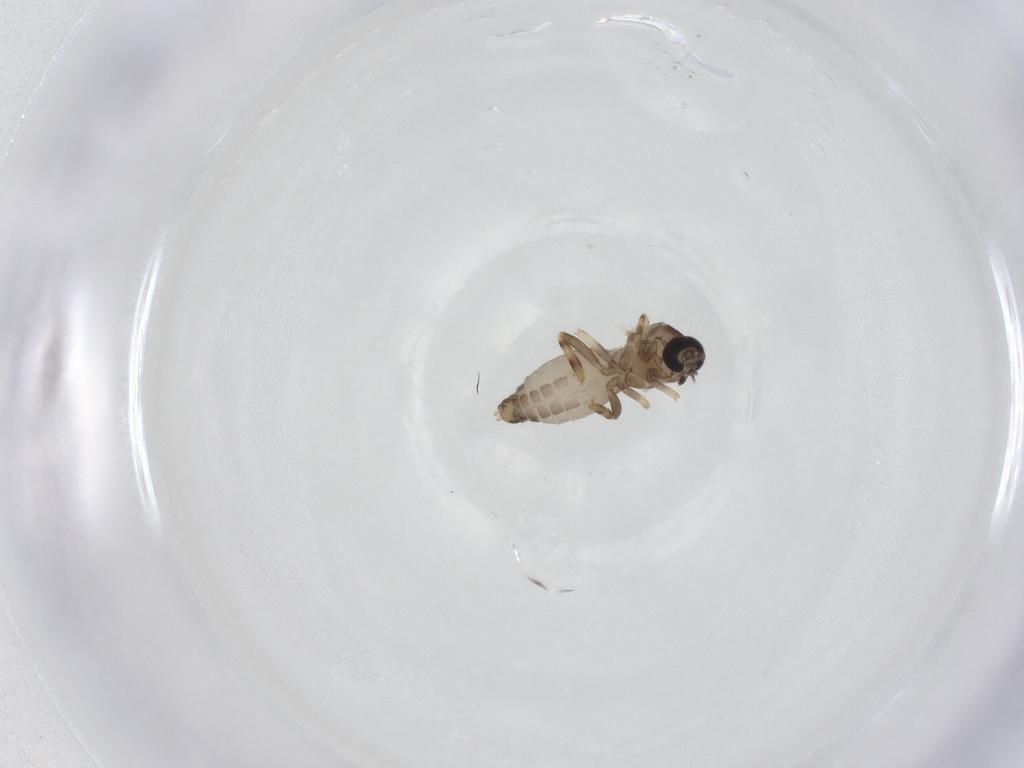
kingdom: Animalia
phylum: Arthropoda
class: Insecta
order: Diptera
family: Ceratopogonidae
